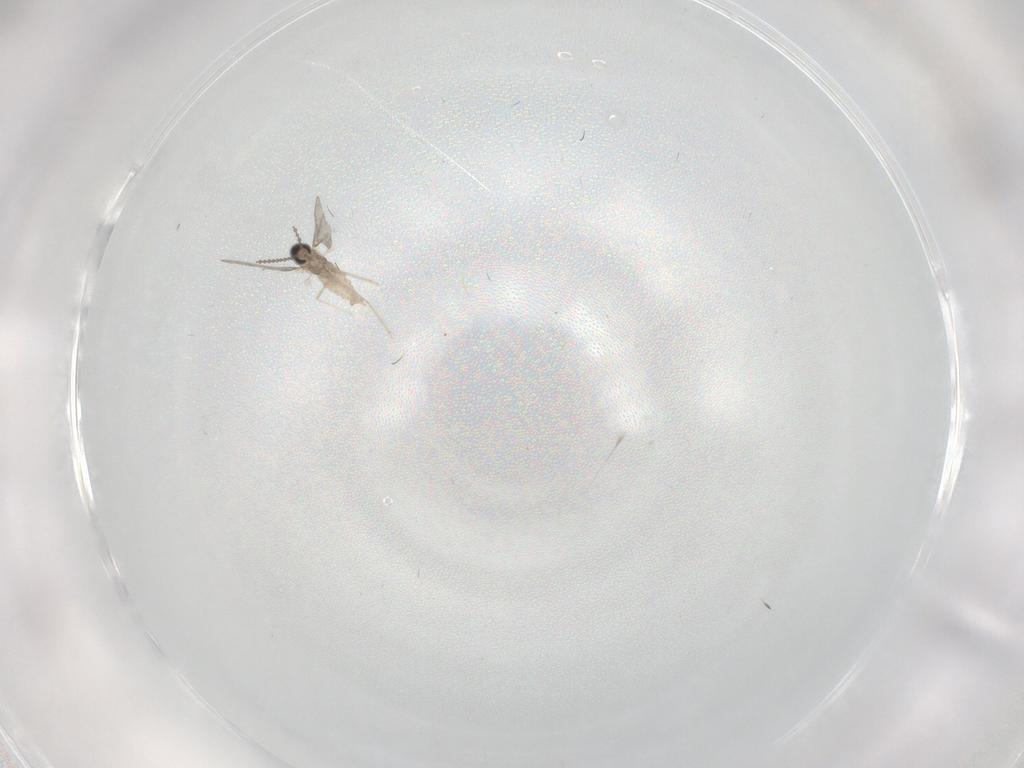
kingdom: Animalia
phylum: Arthropoda
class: Insecta
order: Diptera
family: Cecidomyiidae
